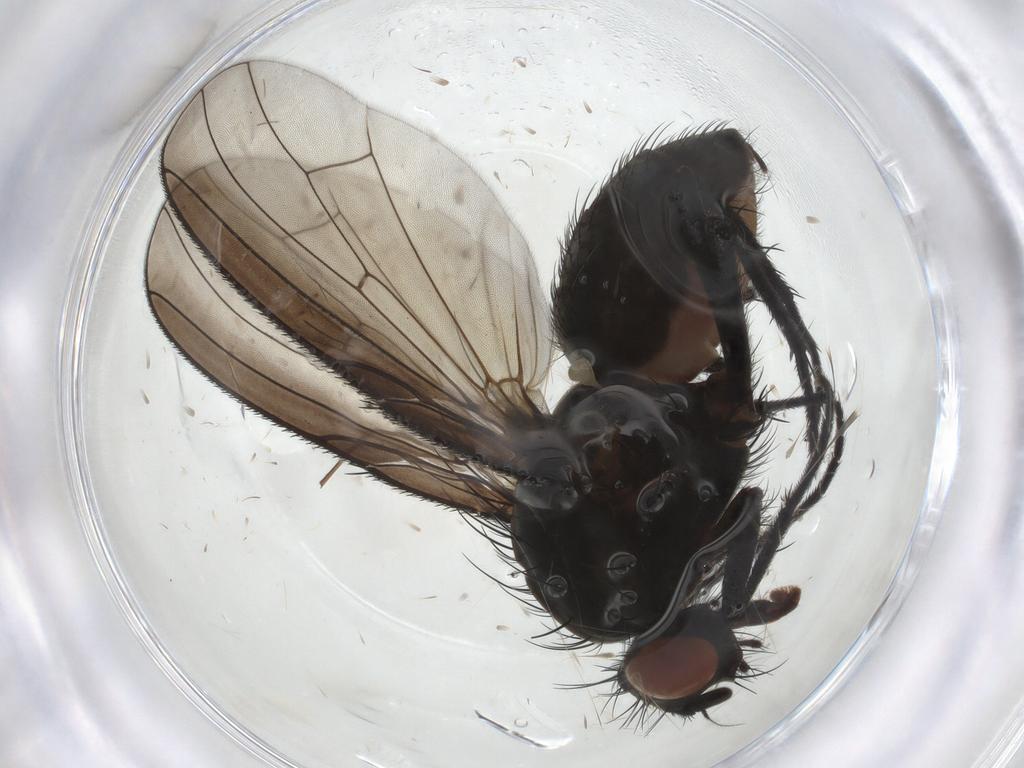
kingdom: Animalia
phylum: Arthropoda
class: Insecta
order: Diptera
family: Anthomyiidae
